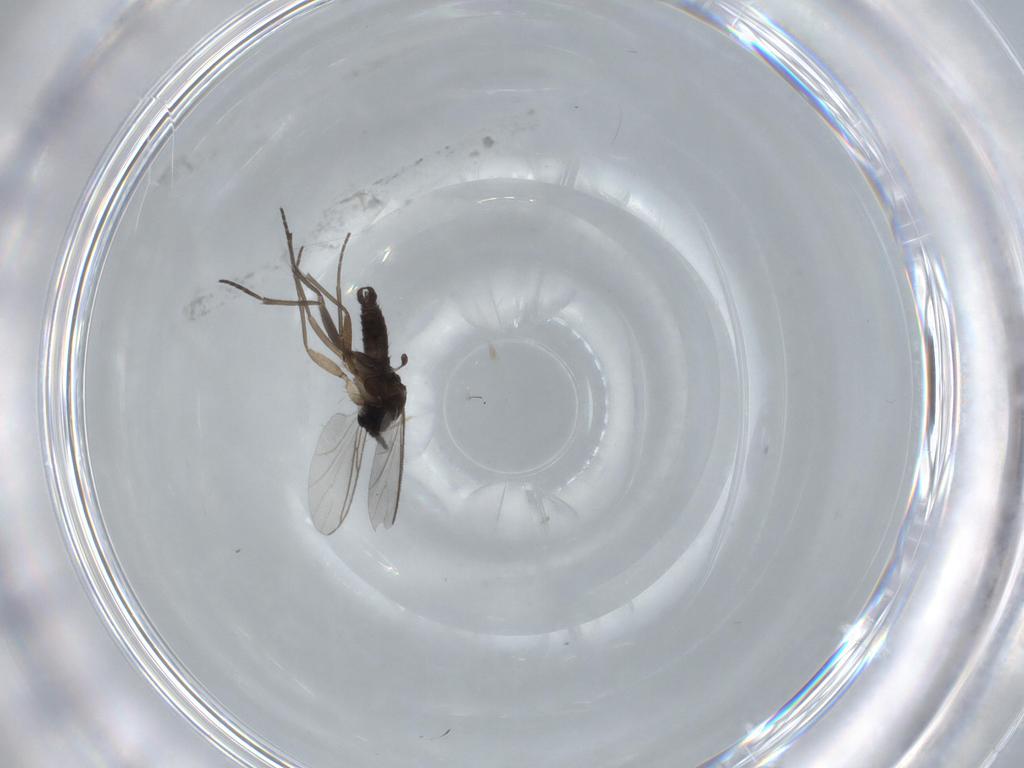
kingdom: Animalia
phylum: Arthropoda
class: Insecta
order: Diptera
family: Sciaridae
